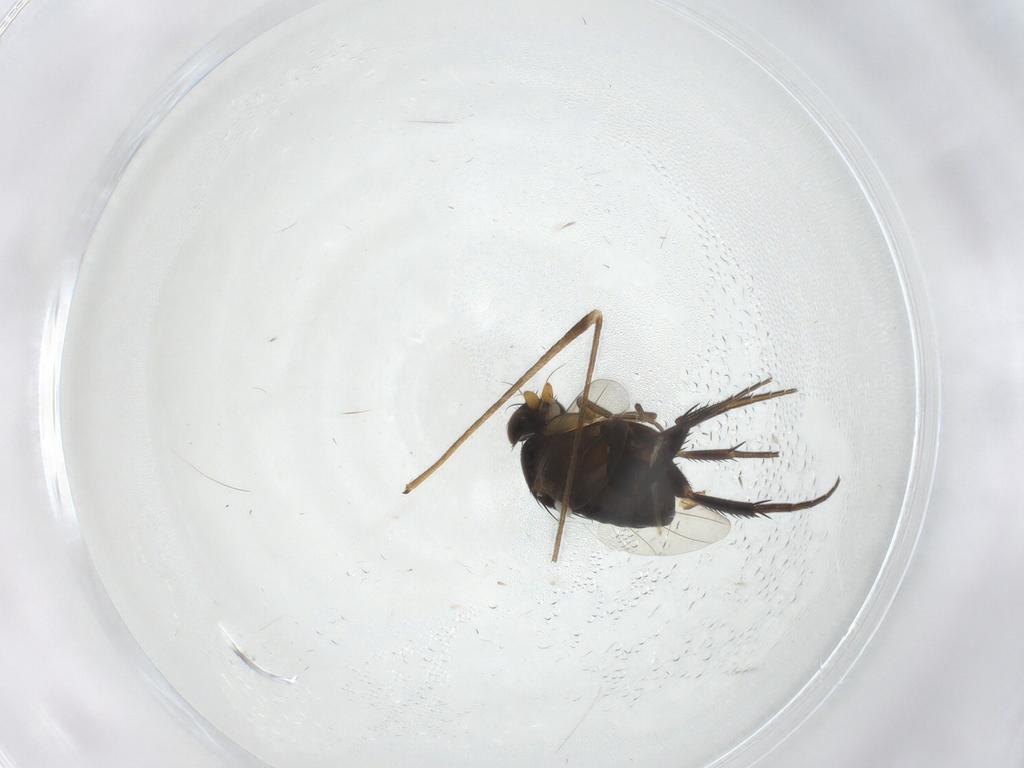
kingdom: Animalia
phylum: Arthropoda
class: Insecta
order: Diptera
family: Phoridae
